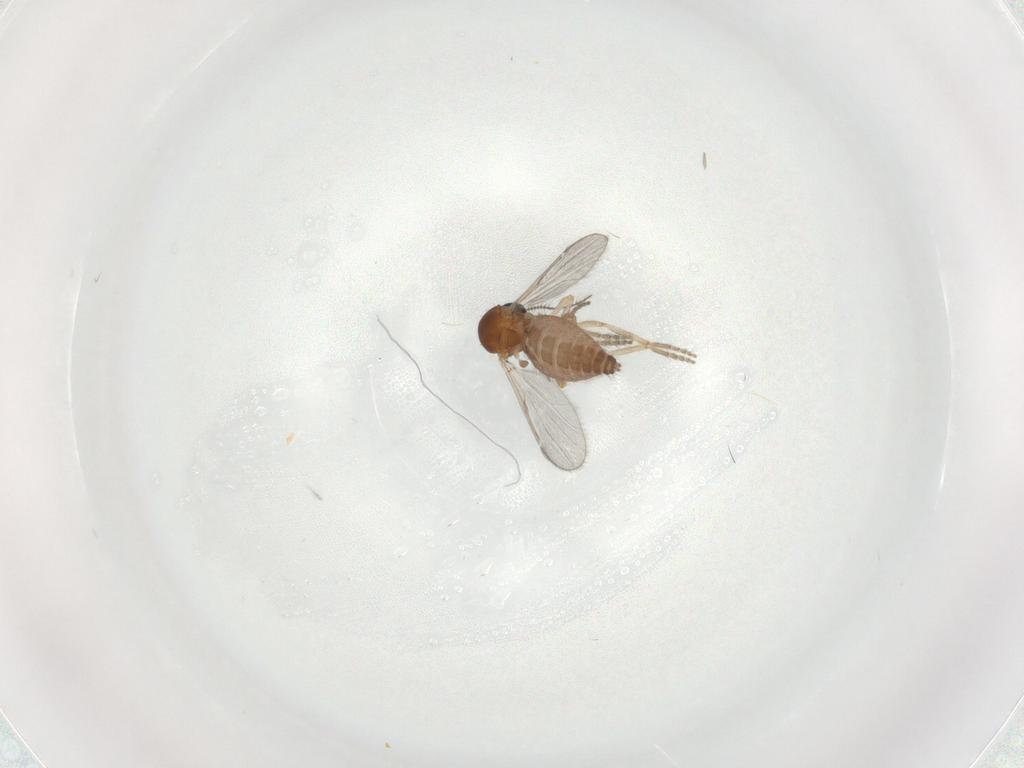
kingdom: Animalia
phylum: Arthropoda
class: Insecta
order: Diptera
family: Ceratopogonidae
